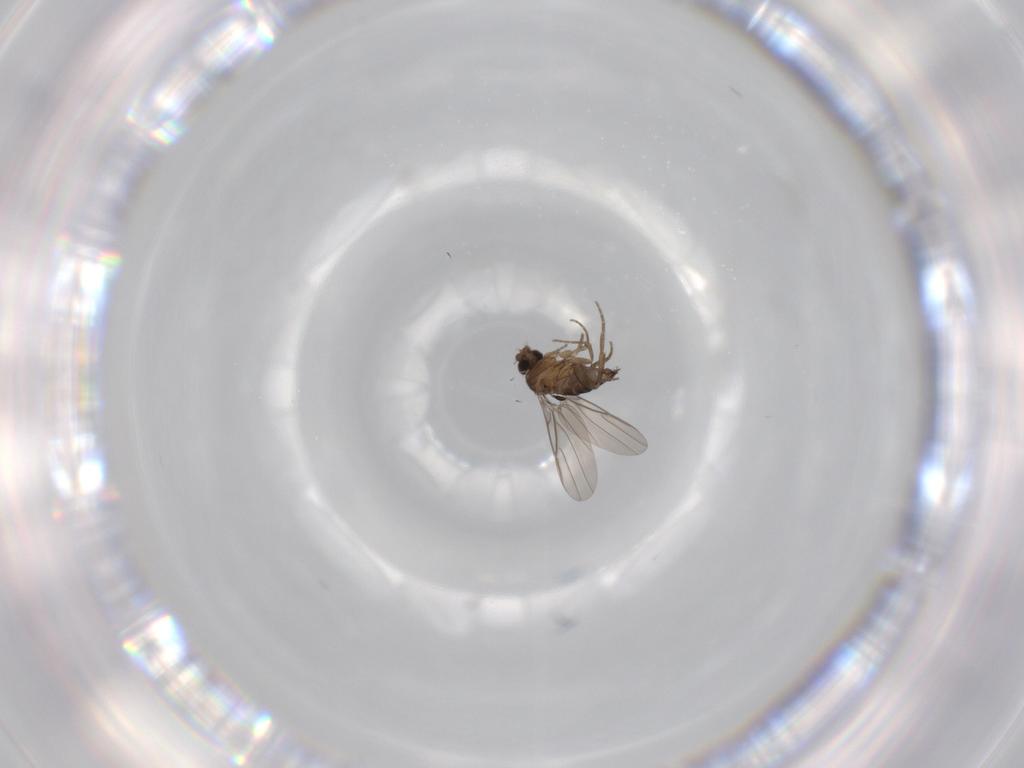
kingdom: Animalia
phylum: Arthropoda
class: Insecta
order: Diptera
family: Phoridae
